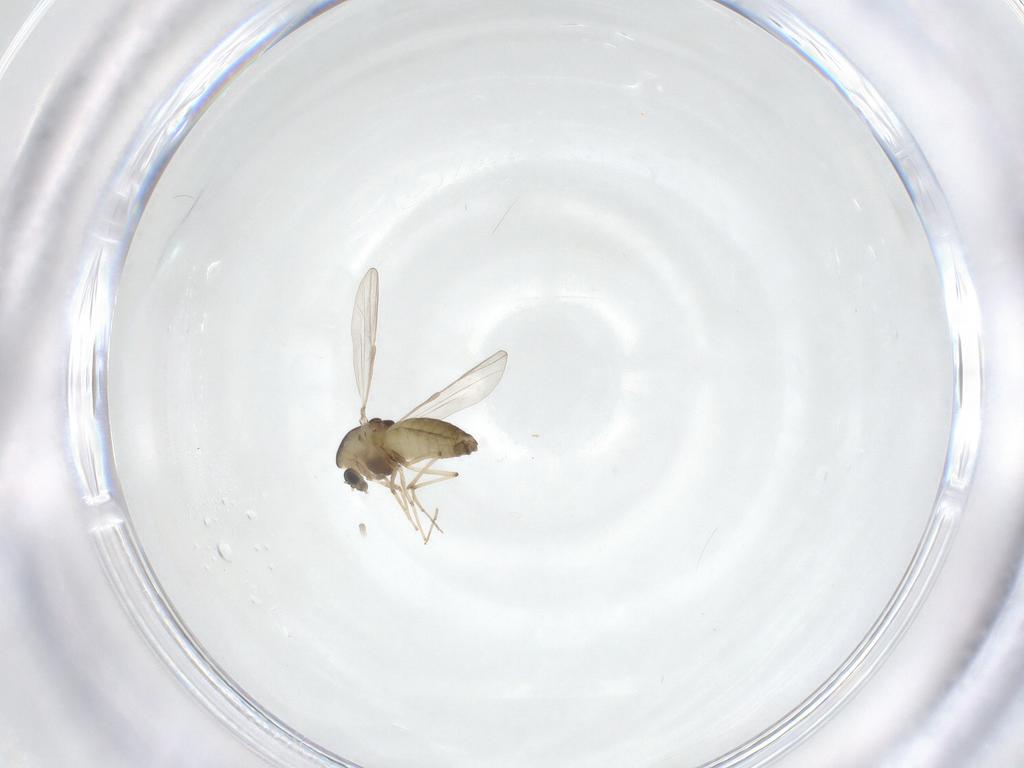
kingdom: Animalia
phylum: Arthropoda
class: Insecta
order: Diptera
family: Chironomidae
